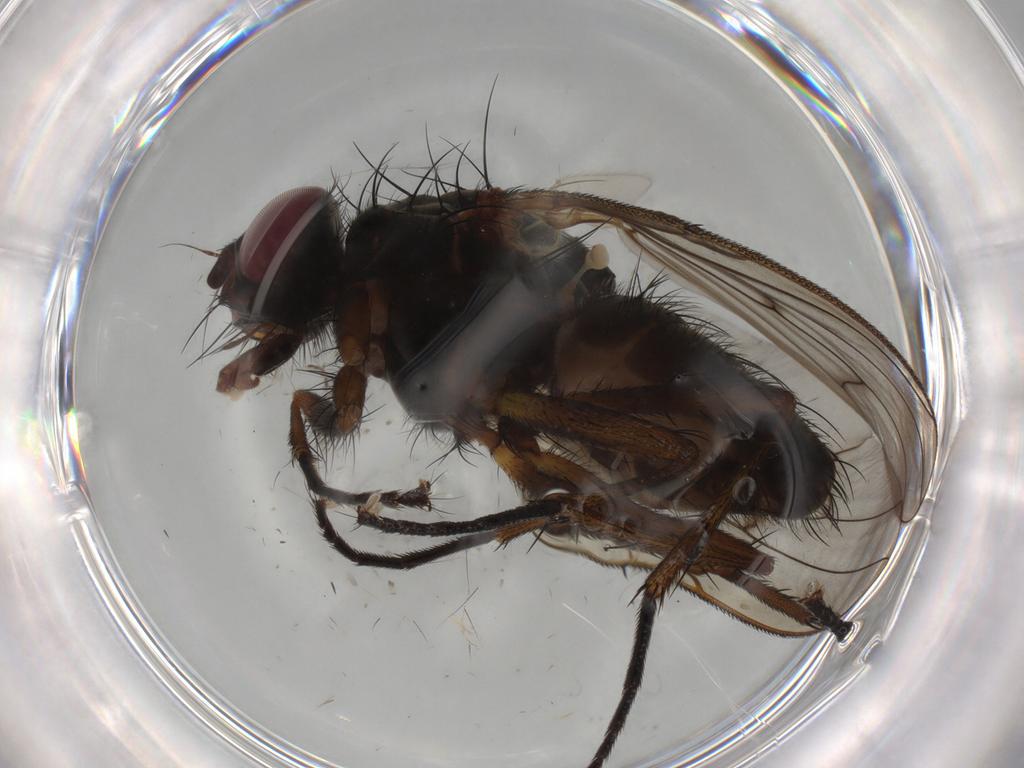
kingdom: Animalia
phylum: Arthropoda
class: Insecta
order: Diptera
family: Anthomyiidae
